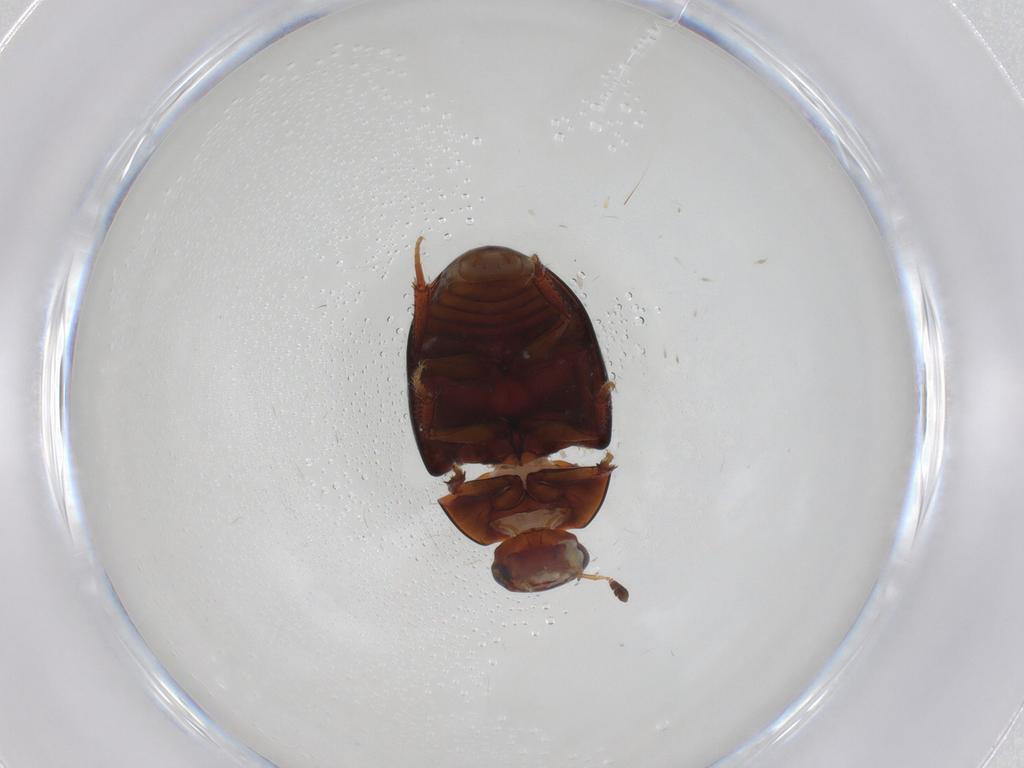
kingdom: Animalia
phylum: Arthropoda
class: Insecta
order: Coleoptera
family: Hydrophilidae
